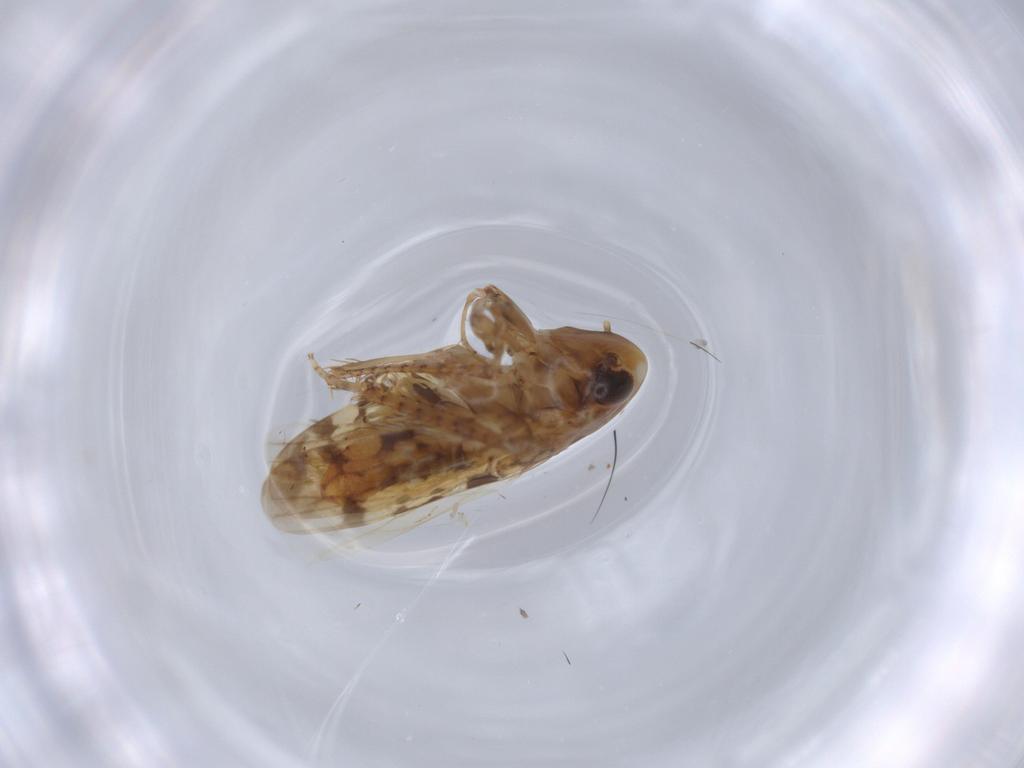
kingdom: Animalia
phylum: Arthropoda
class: Insecta
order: Hemiptera
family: Cicadellidae
